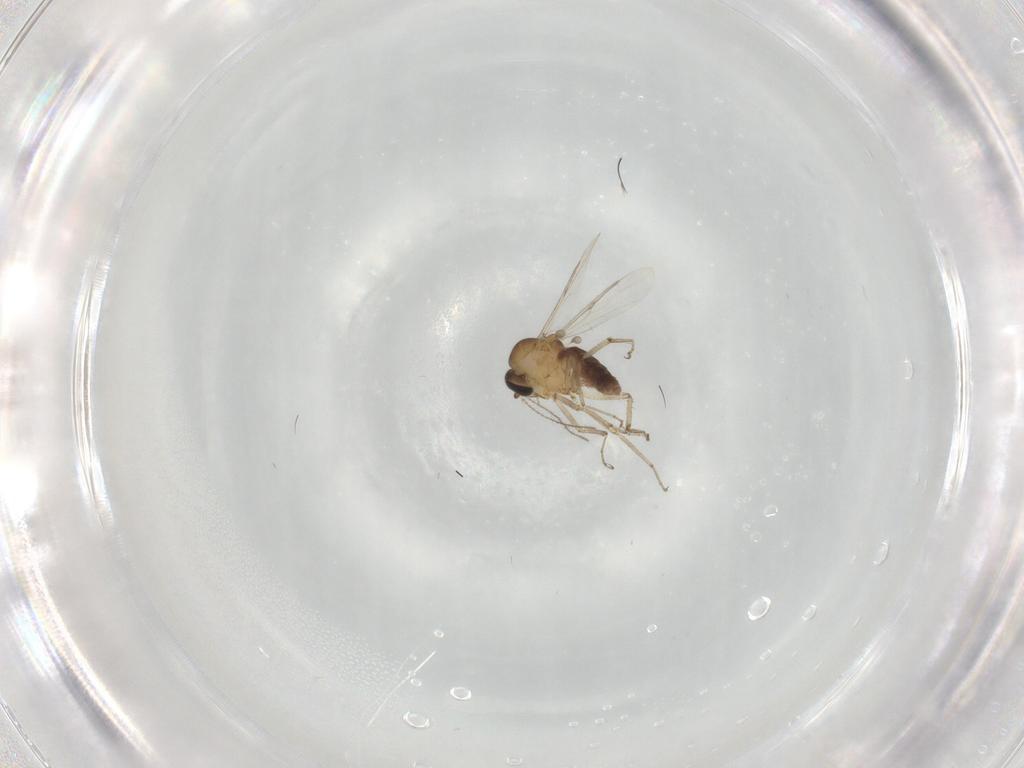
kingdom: Animalia
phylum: Arthropoda
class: Insecta
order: Diptera
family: Ceratopogonidae
